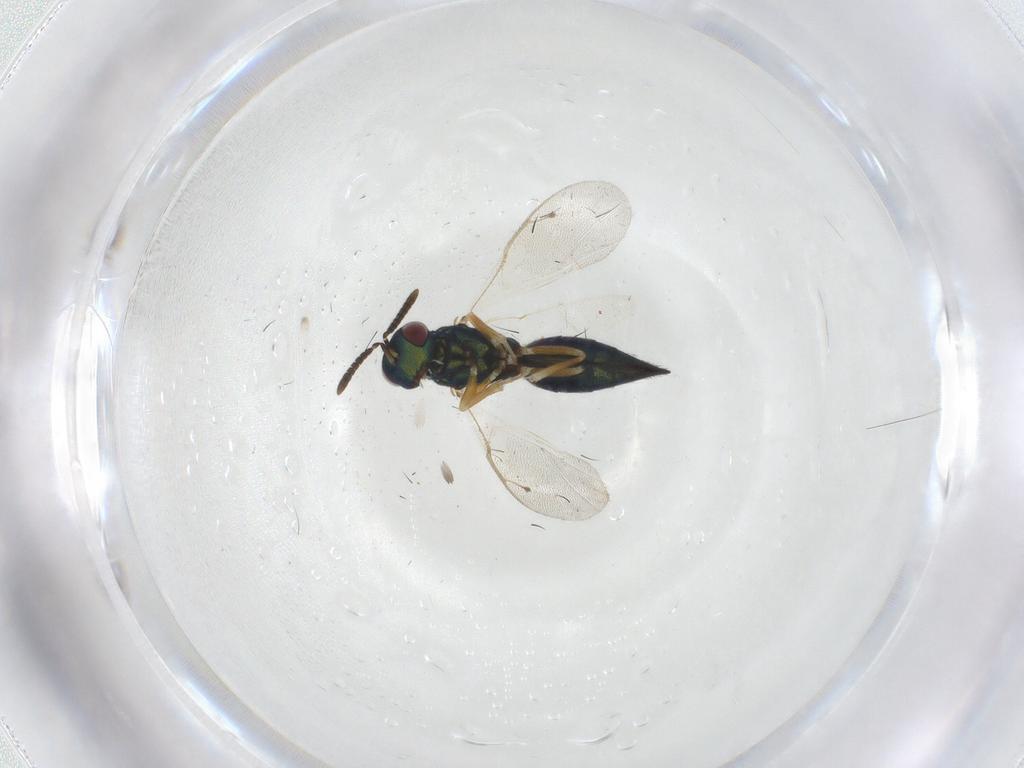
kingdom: Animalia
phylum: Arthropoda
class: Insecta
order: Hymenoptera
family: Pteromalidae
